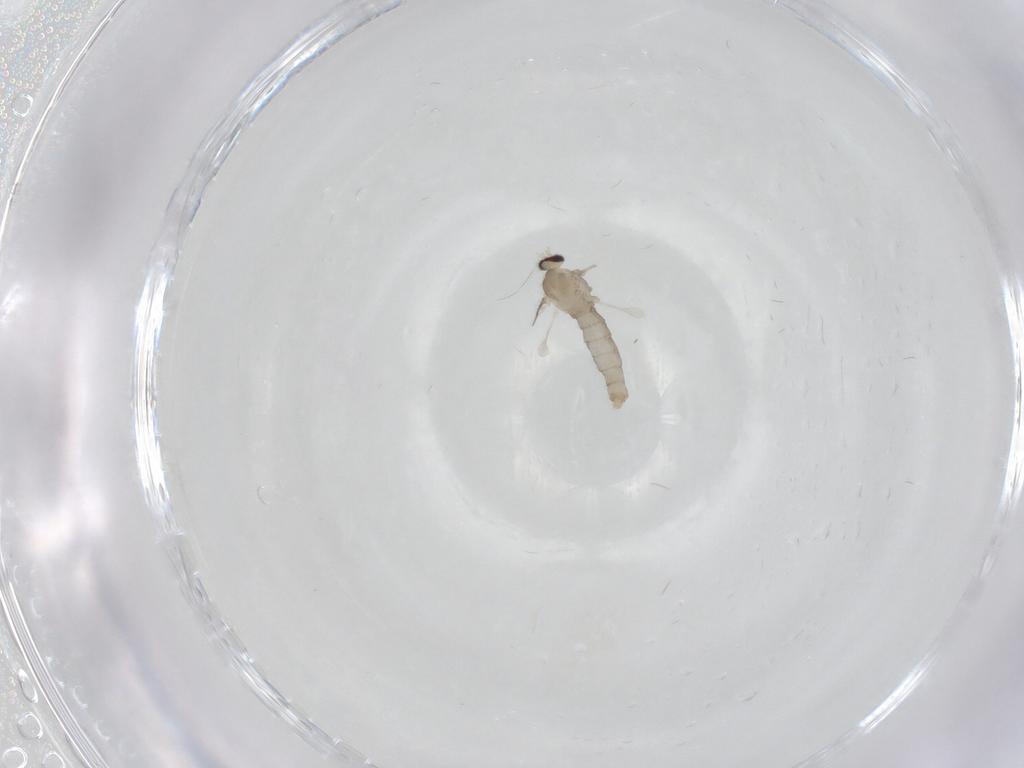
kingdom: Animalia
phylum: Arthropoda
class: Insecta
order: Diptera
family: Cecidomyiidae
